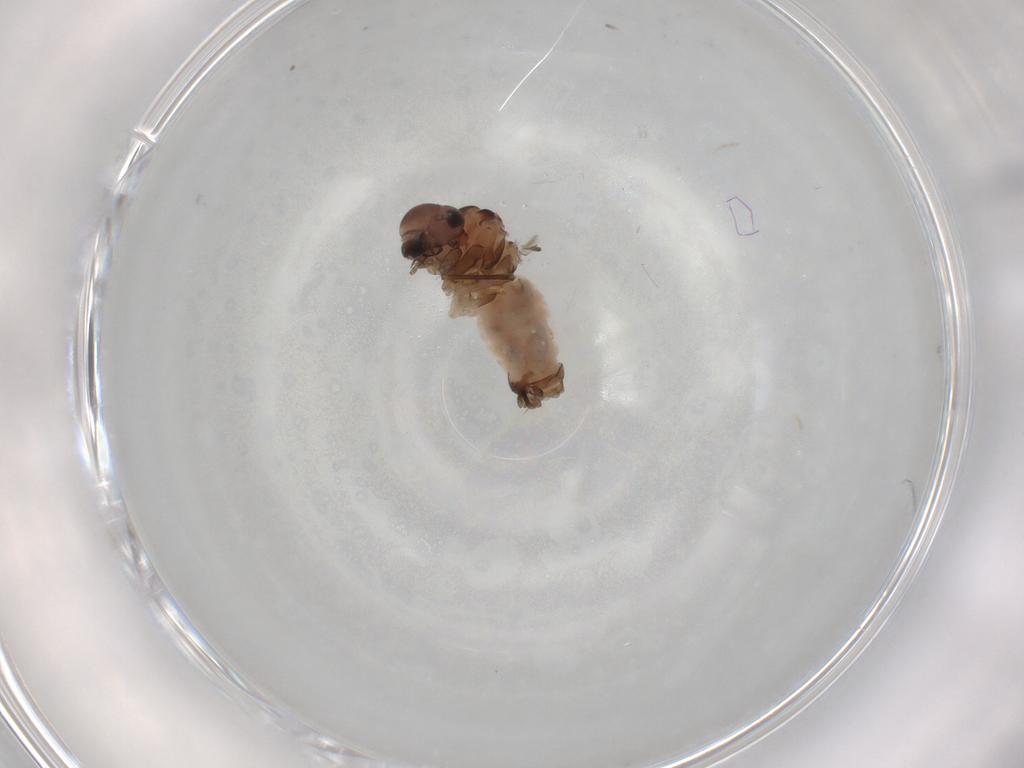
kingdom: Animalia
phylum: Arthropoda
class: Insecta
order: Psocodea
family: Peripsocidae
